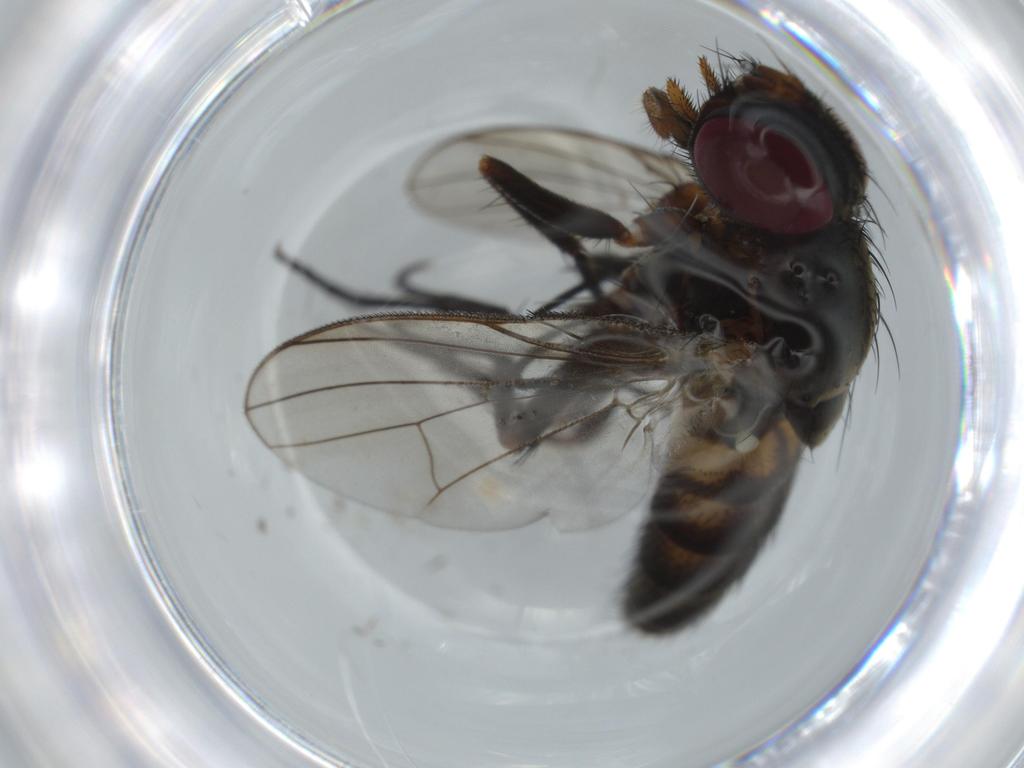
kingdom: Animalia
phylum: Arthropoda
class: Insecta
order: Diptera
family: Fannia
